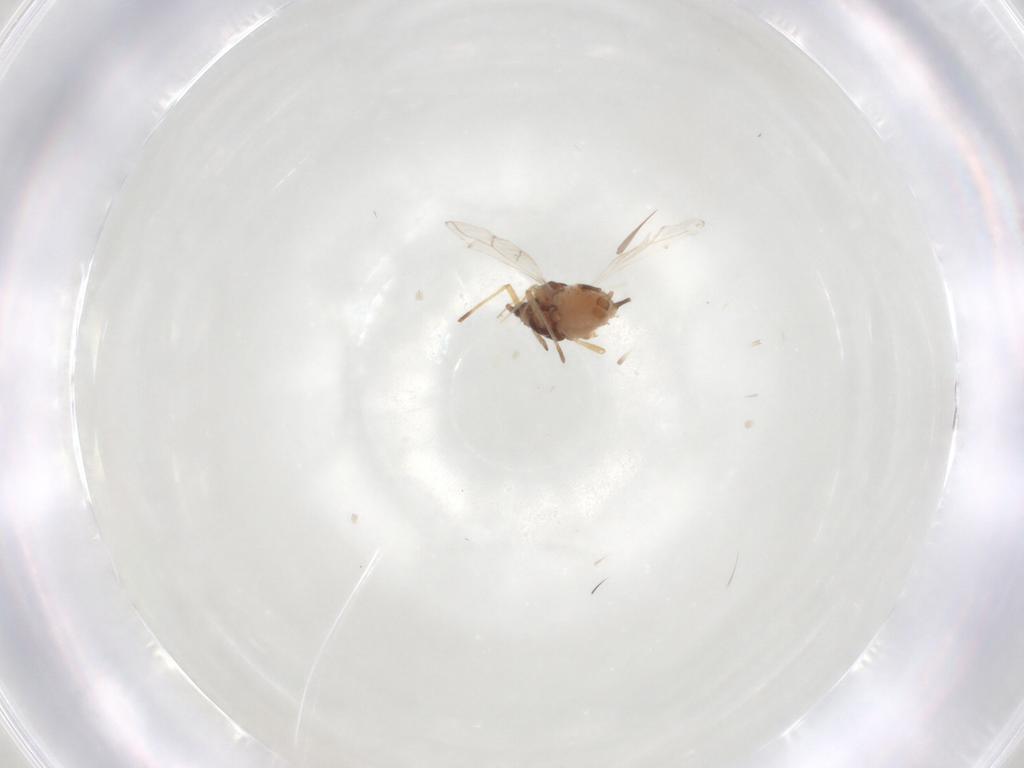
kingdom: Animalia
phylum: Arthropoda
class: Insecta
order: Hemiptera
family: Aphididae
